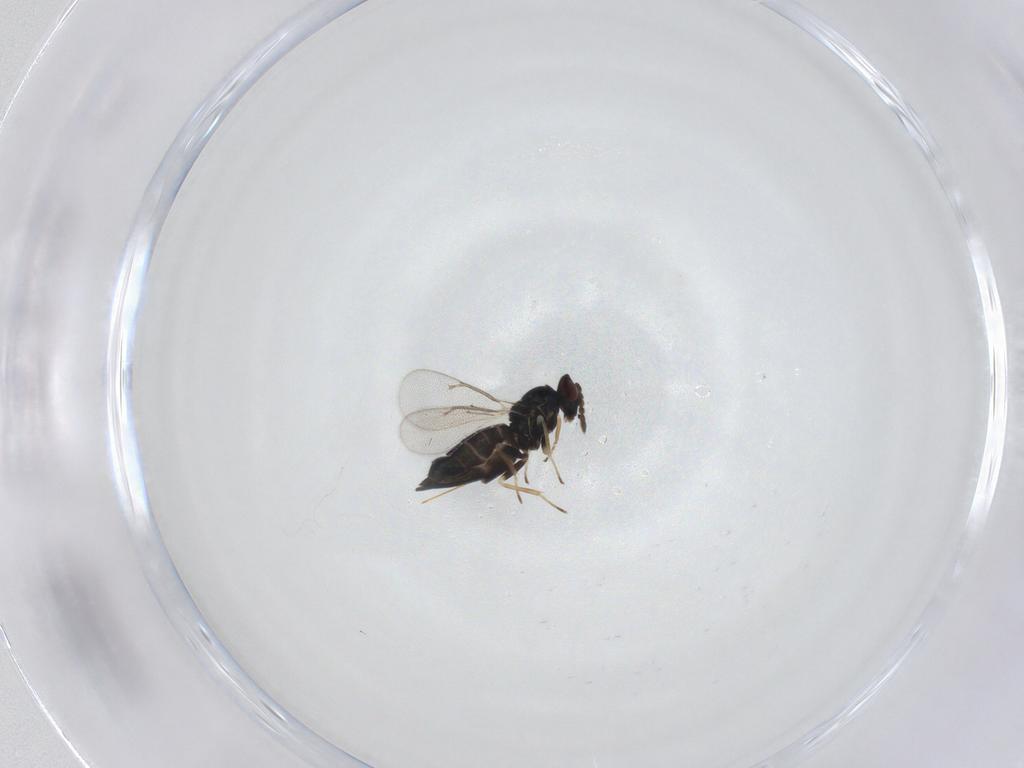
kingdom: Animalia
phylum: Arthropoda
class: Insecta
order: Hymenoptera
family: Eulophidae
